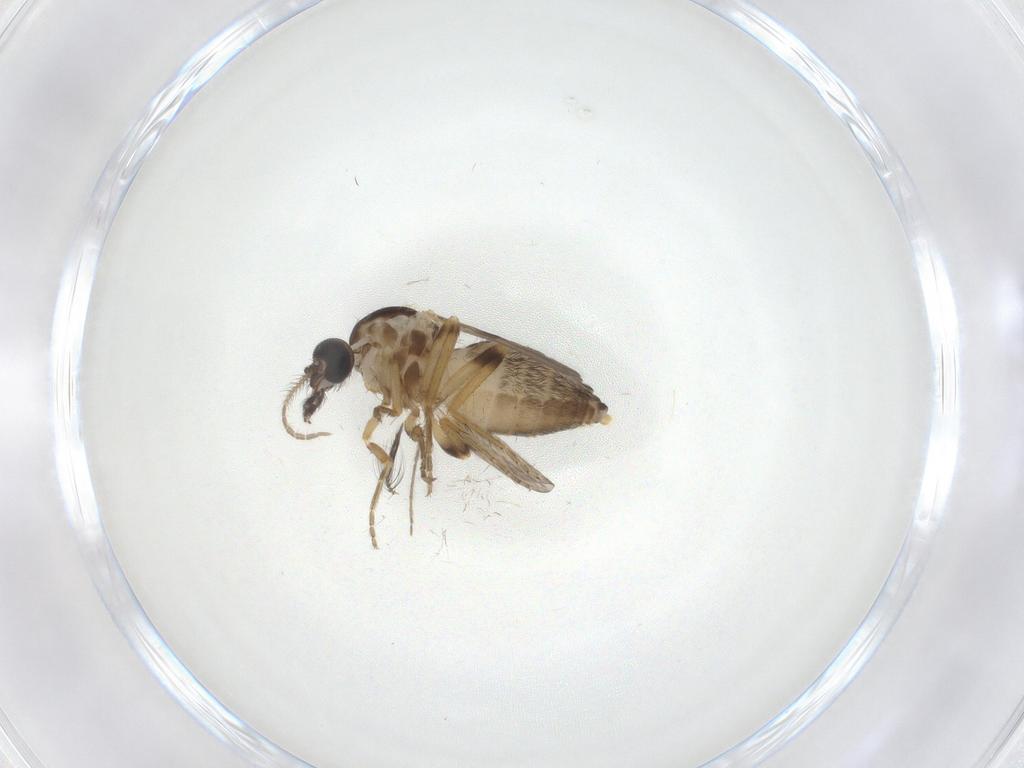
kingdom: Animalia
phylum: Arthropoda
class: Insecta
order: Diptera
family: Ceratopogonidae
